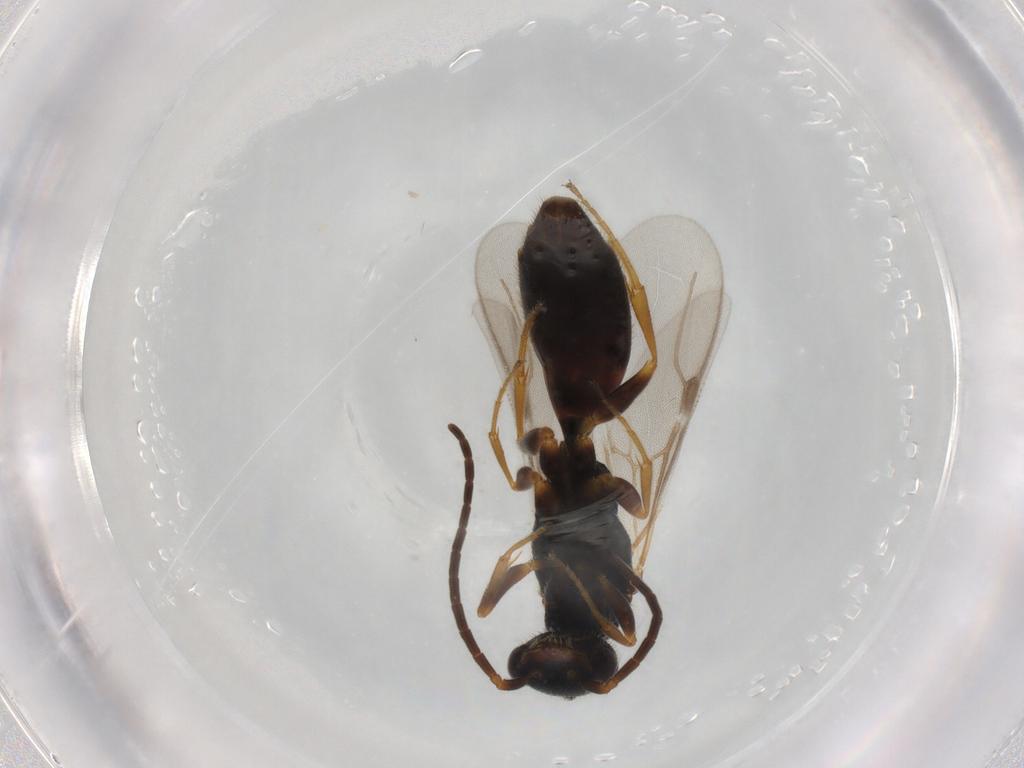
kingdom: Animalia
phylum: Arthropoda
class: Insecta
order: Hymenoptera
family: Bethylidae
